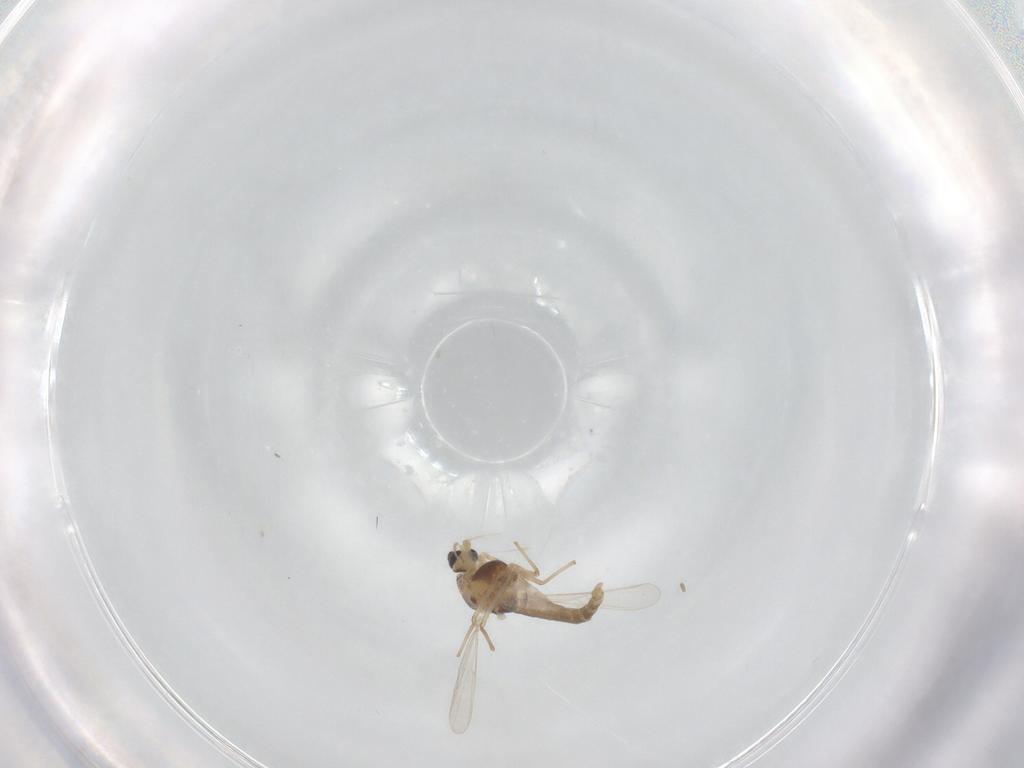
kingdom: Animalia
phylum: Arthropoda
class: Insecta
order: Diptera
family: Chironomidae
